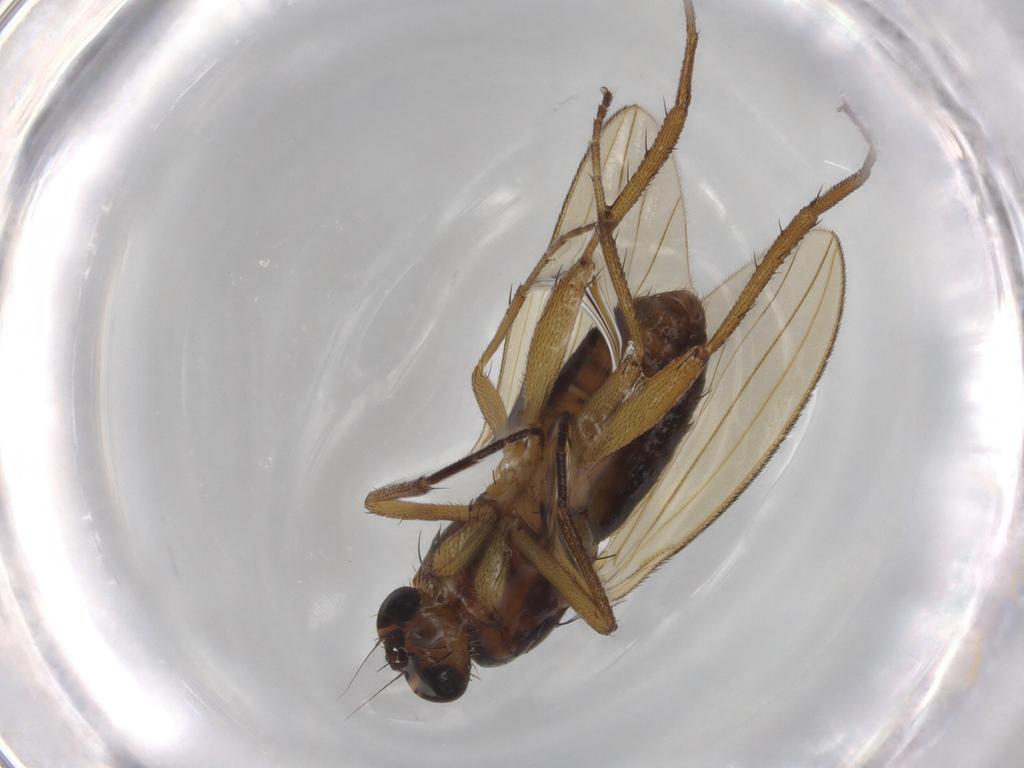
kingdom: Animalia
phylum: Arthropoda
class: Insecta
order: Diptera
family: Lonchopteridae
